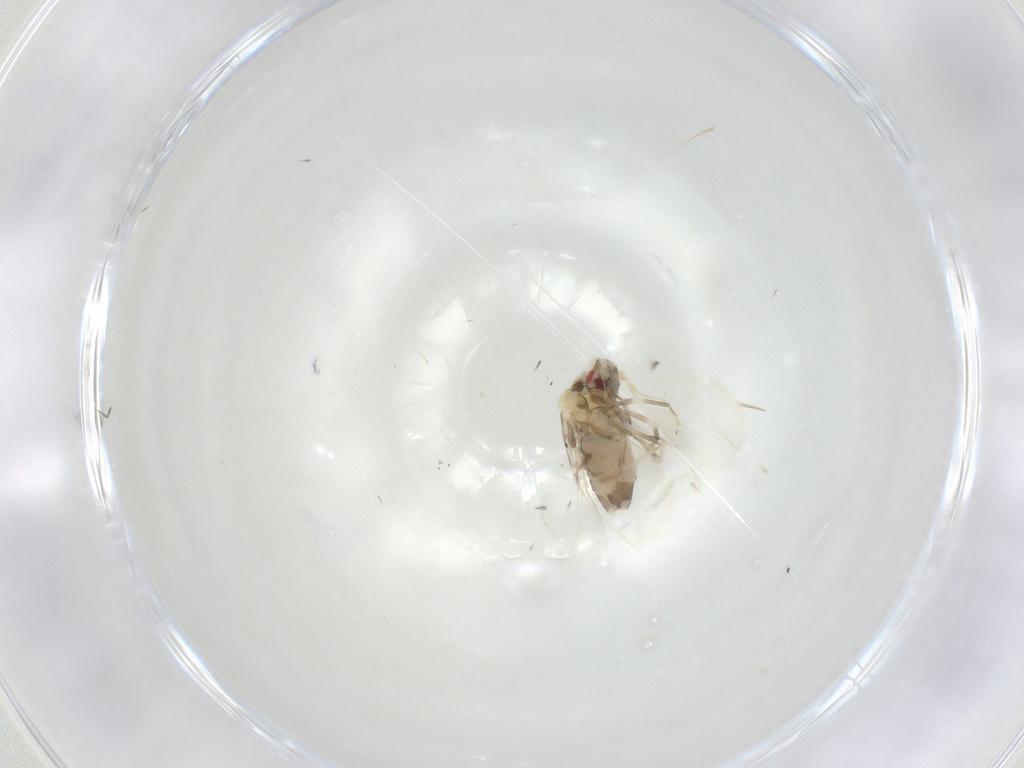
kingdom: Animalia
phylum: Arthropoda
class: Insecta
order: Hemiptera
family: Aleyrodidae
